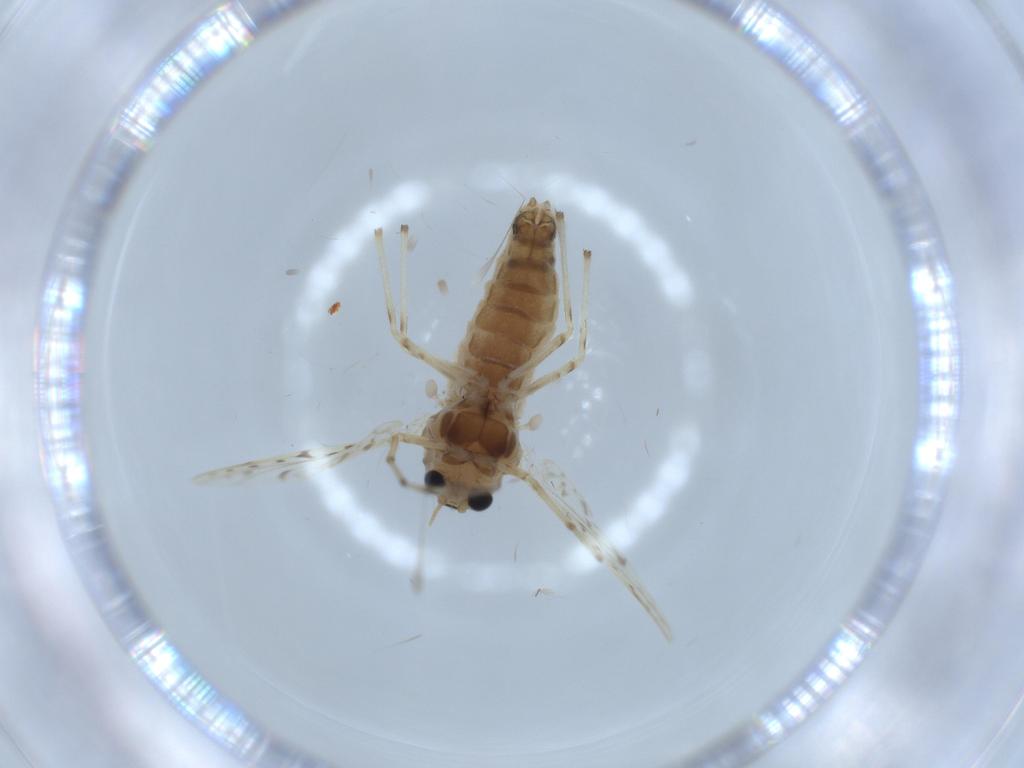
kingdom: Animalia
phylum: Arthropoda
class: Insecta
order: Diptera
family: Chironomidae
